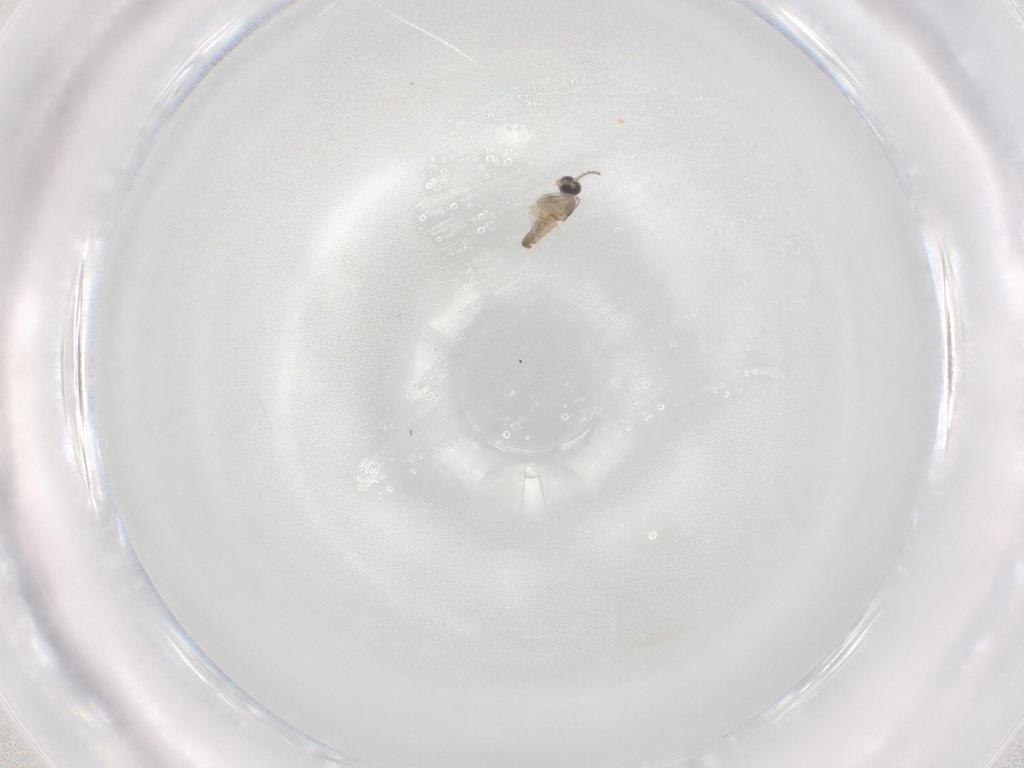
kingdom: Animalia
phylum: Arthropoda
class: Insecta
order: Diptera
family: Cecidomyiidae
